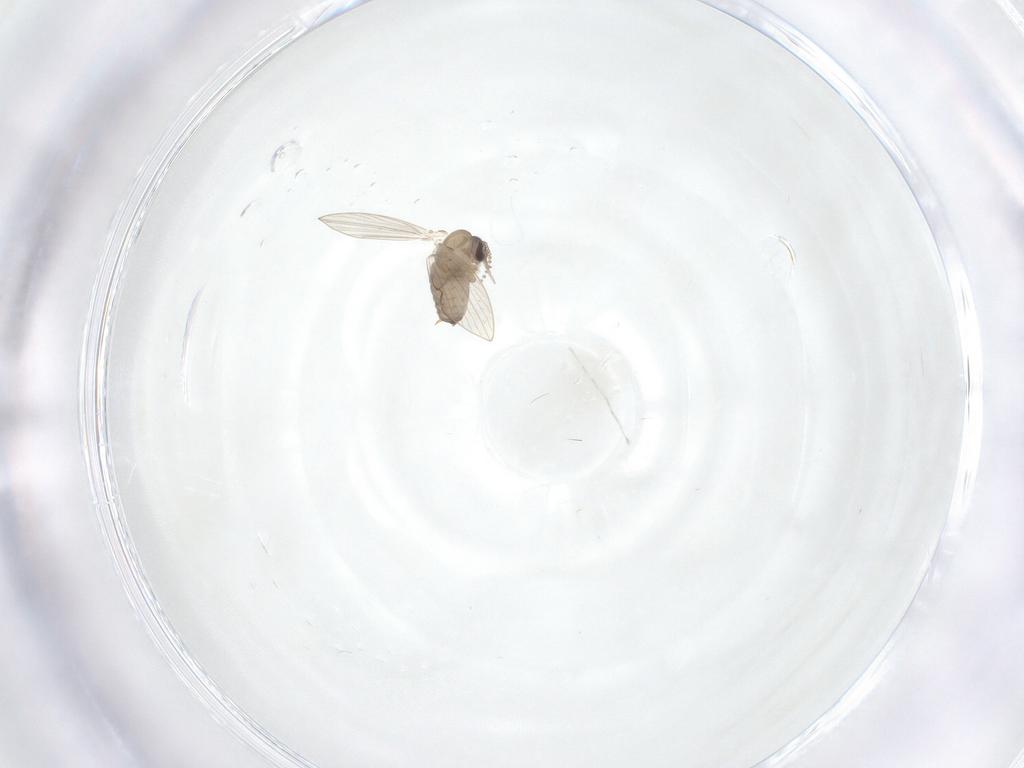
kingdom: Animalia
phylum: Arthropoda
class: Insecta
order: Diptera
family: Psychodidae
